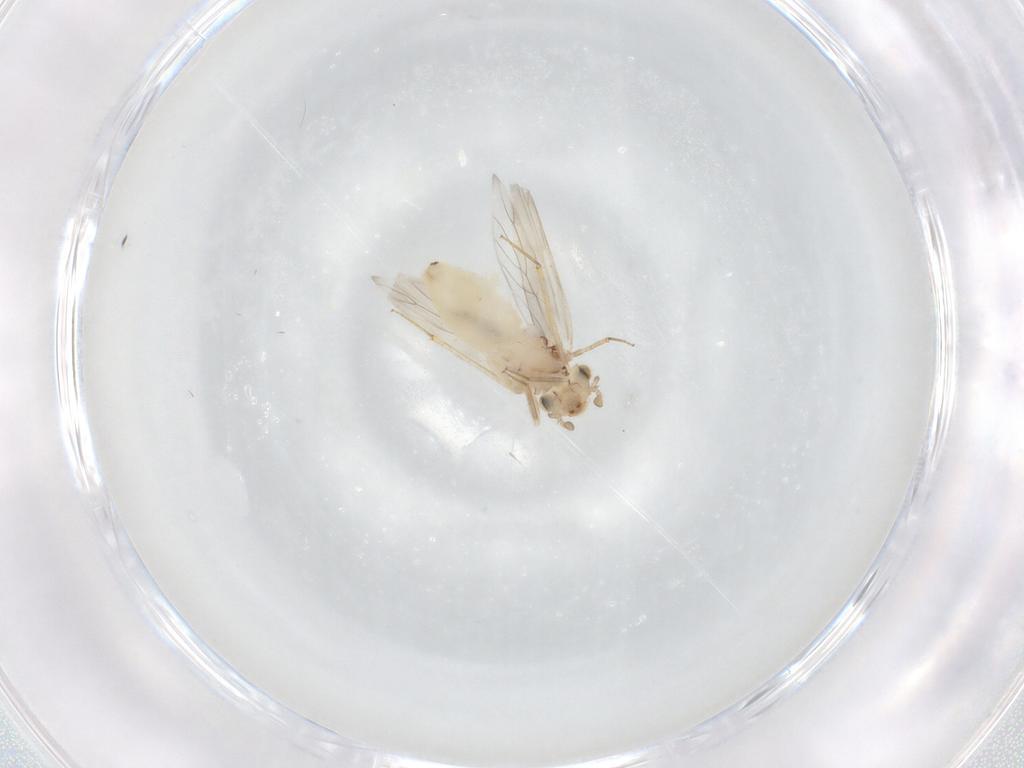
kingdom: Animalia
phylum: Arthropoda
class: Insecta
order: Psocodea
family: Lepidopsocidae
